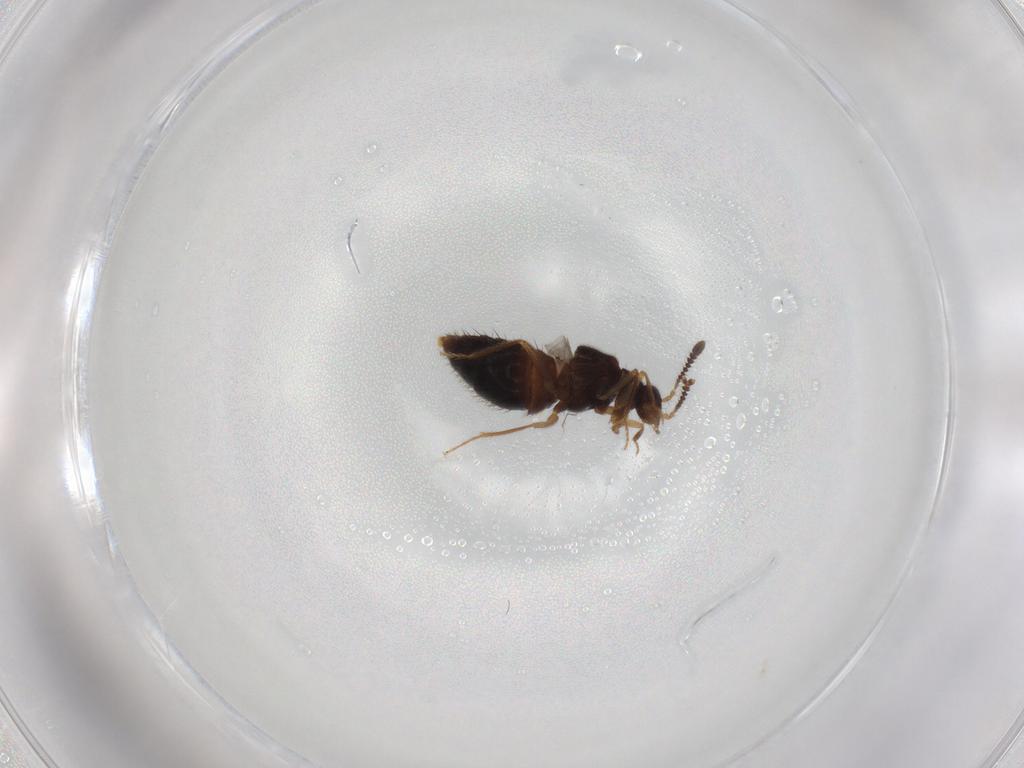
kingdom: Animalia
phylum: Arthropoda
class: Insecta
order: Coleoptera
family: Staphylinidae
